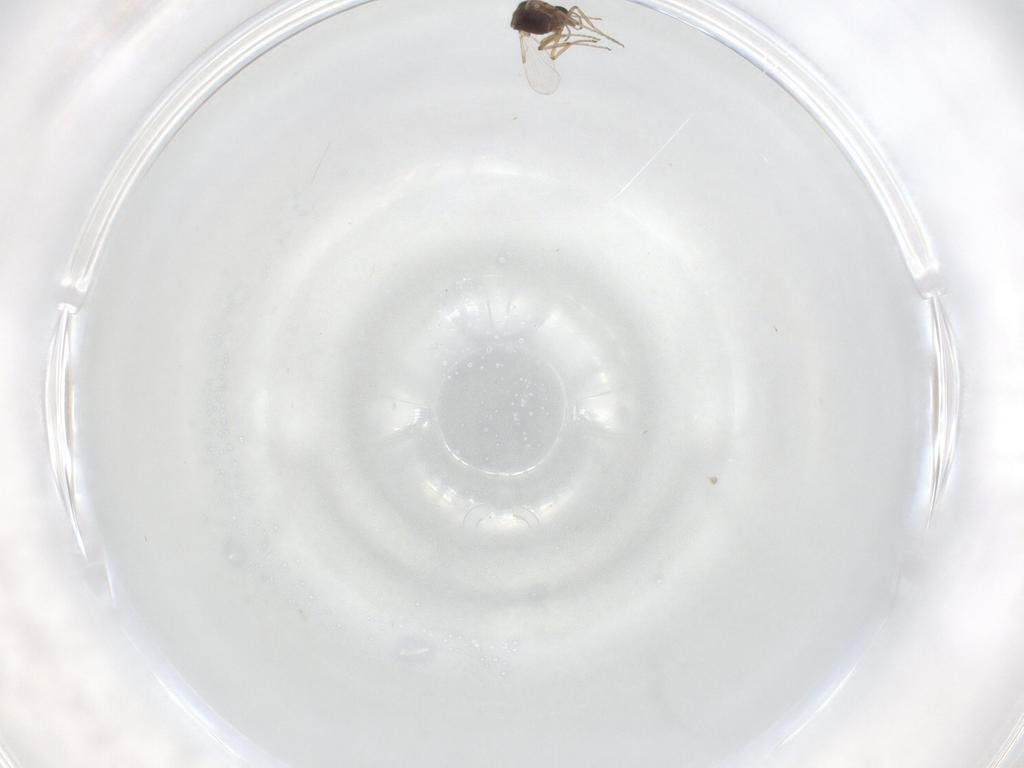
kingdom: Animalia
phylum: Arthropoda
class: Insecta
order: Diptera
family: Ceratopogonidae
